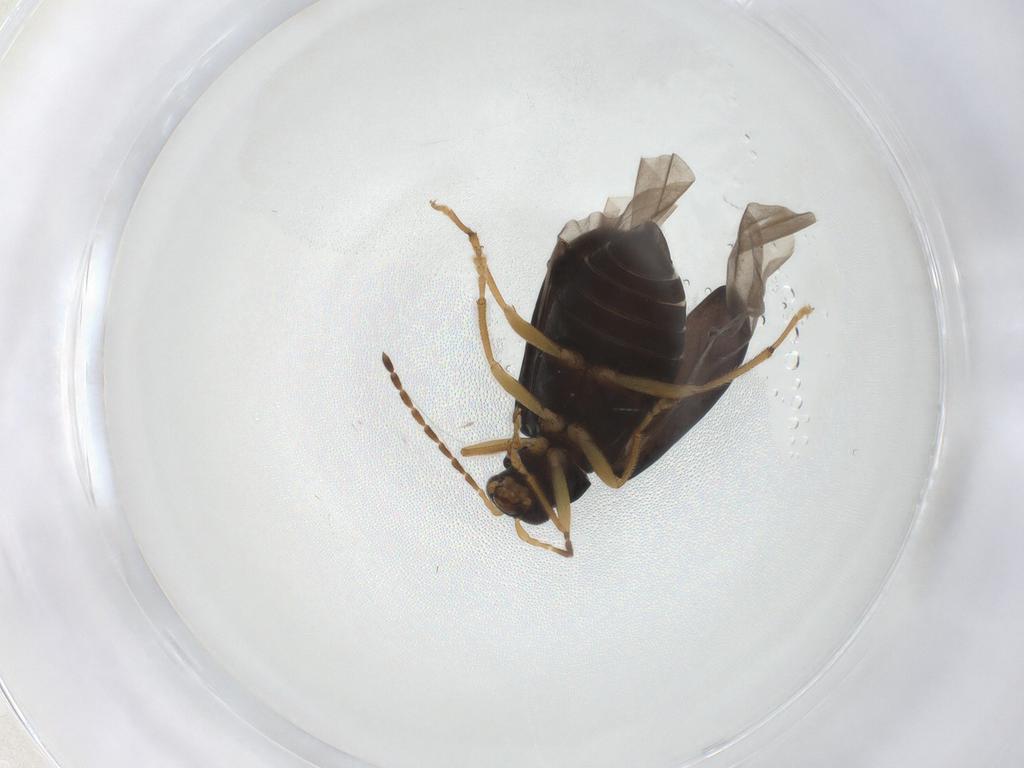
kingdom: Animalia
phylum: Arthropoda
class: Insecta
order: Coleoptera
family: Chrysomelidae
